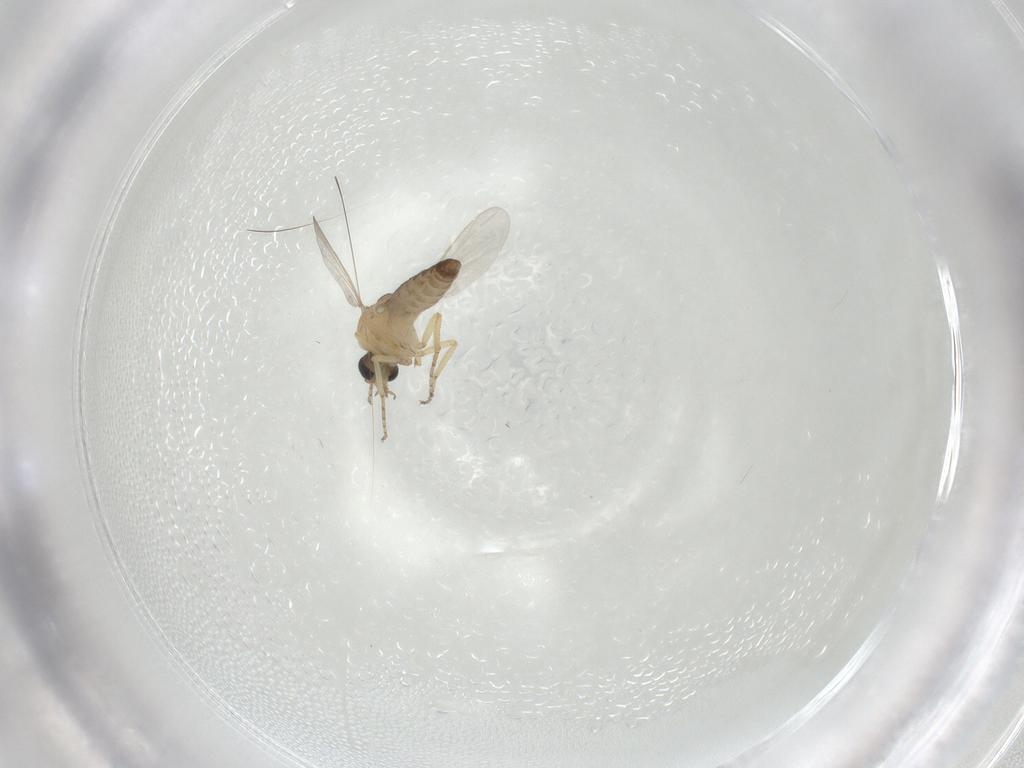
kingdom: Animalia
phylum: Arthropoda
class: Insecta
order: Diptera
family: Ceratopogonidae
